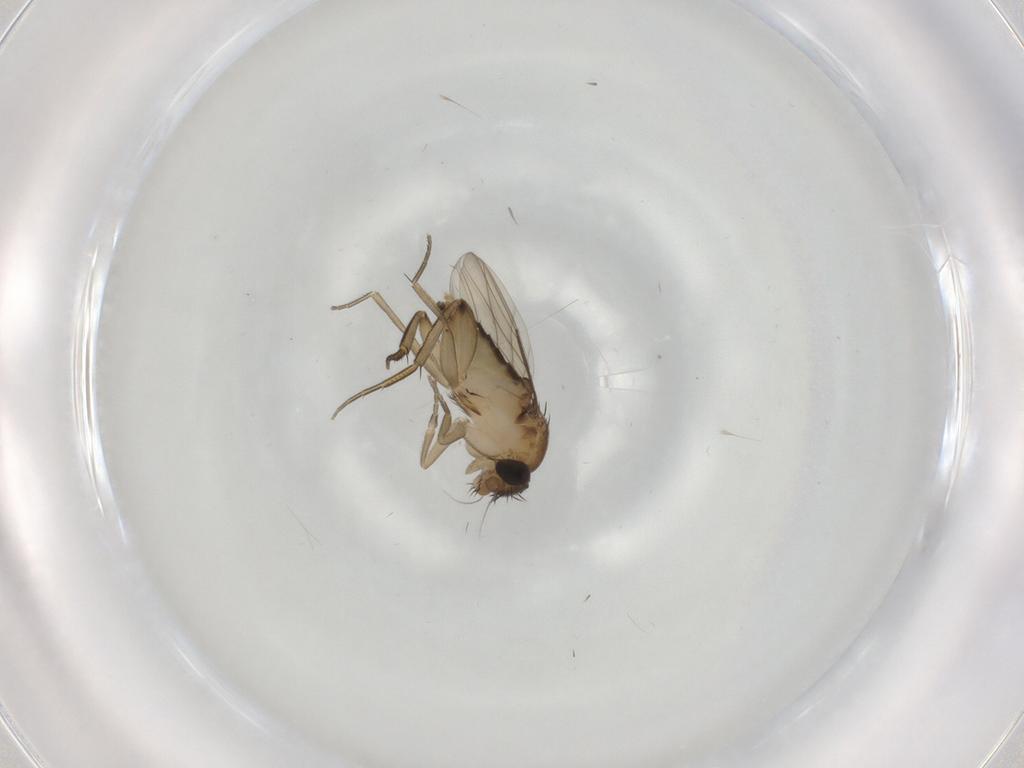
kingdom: Animalia
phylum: Arthropoda
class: Insecta
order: Diptera
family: Phoridae
